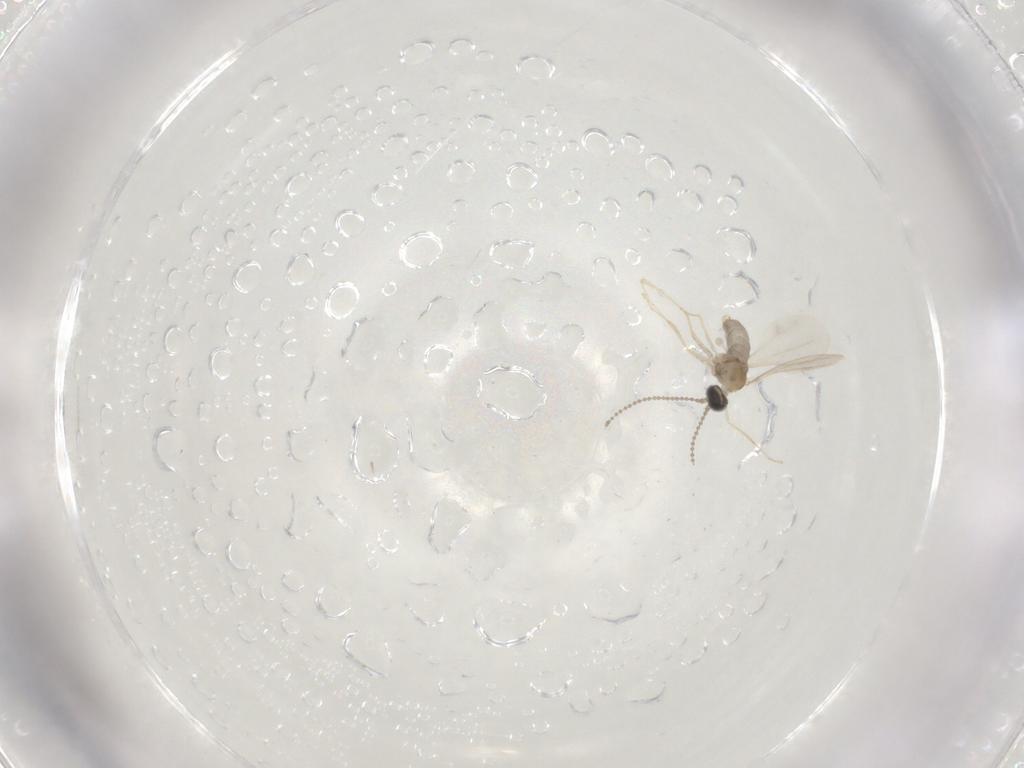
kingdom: Animalia
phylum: Arthropoda
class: Insecta
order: Diptera
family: Cecidomyiidae
